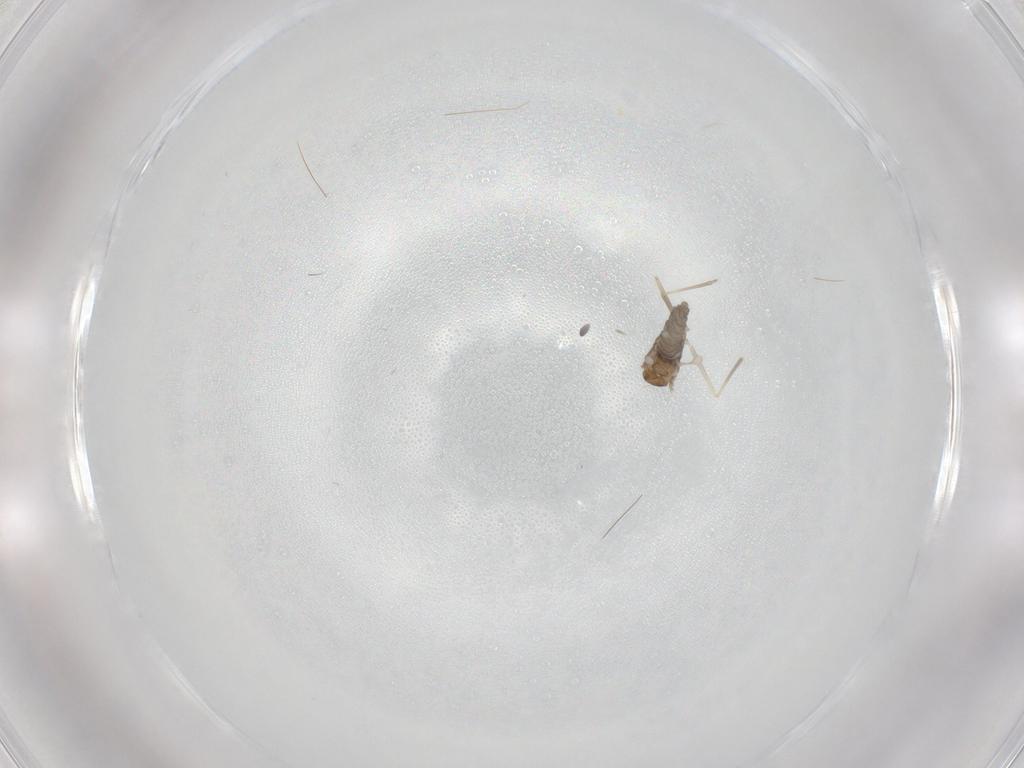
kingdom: Animalia
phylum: Arthropoda
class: Insecta
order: Diptera
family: Cecidomyiidae
